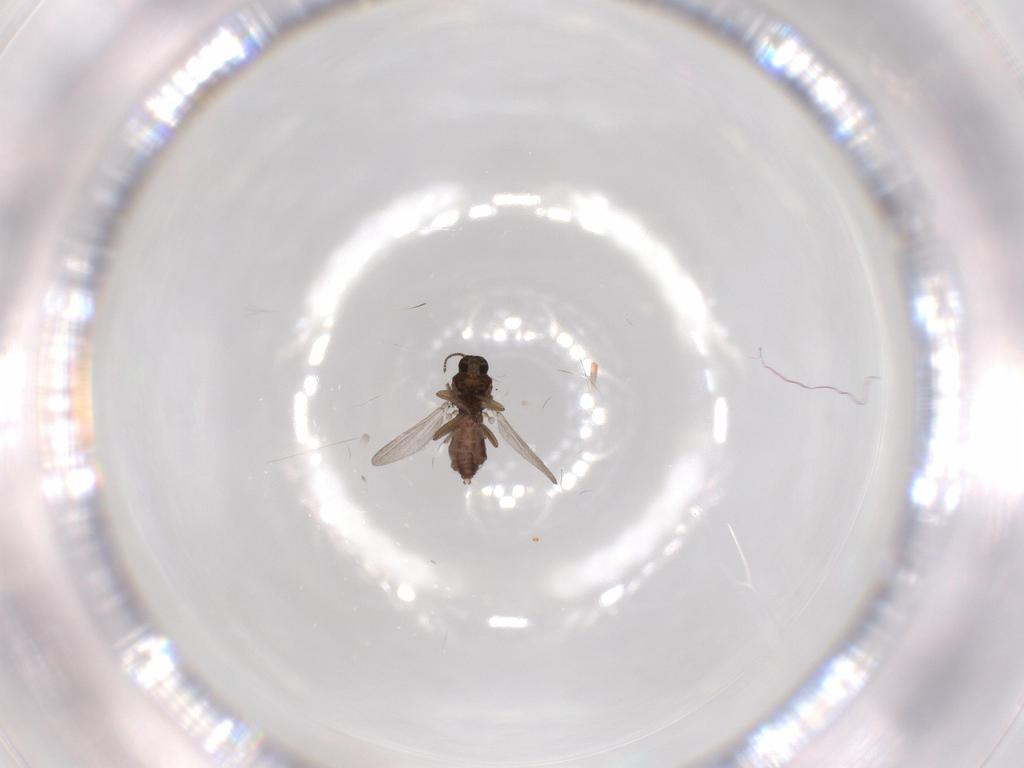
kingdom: Animalia
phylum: Arthropoda
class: Insecta
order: Diptera
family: Ceratopogonidae
